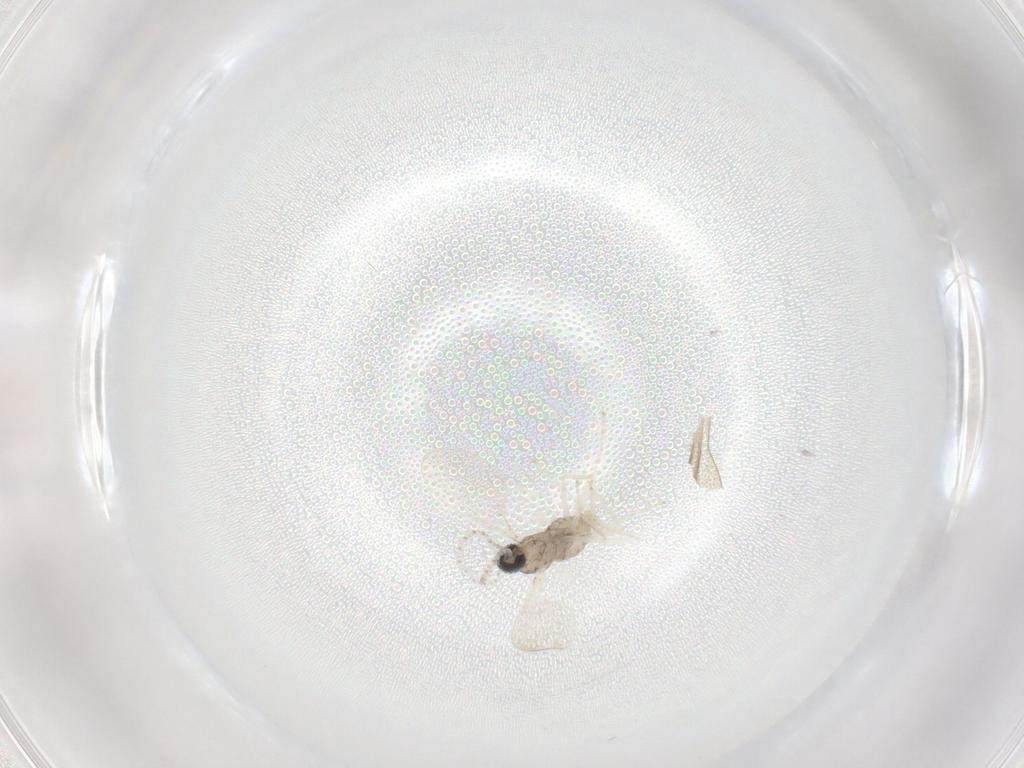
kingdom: Animalia
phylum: Arthropoda
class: Insecta
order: Diptera
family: Cecidomyiidae
